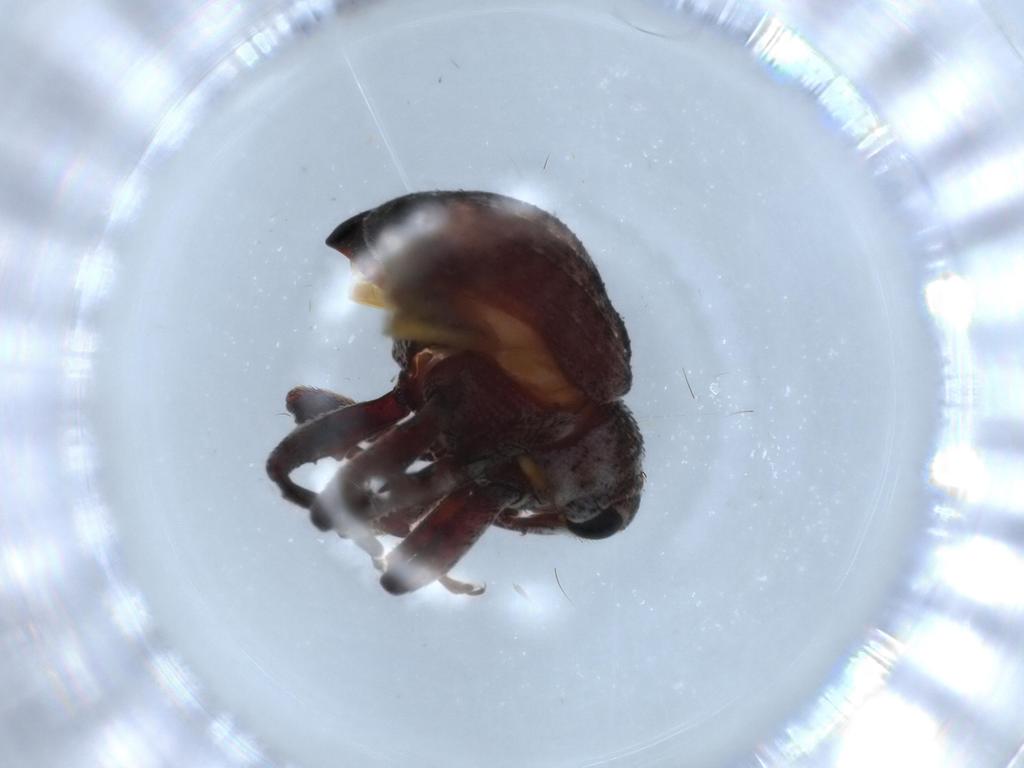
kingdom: Animalia
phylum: Arthropoda
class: Insecta
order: Coleoptera
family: Curculionidae
